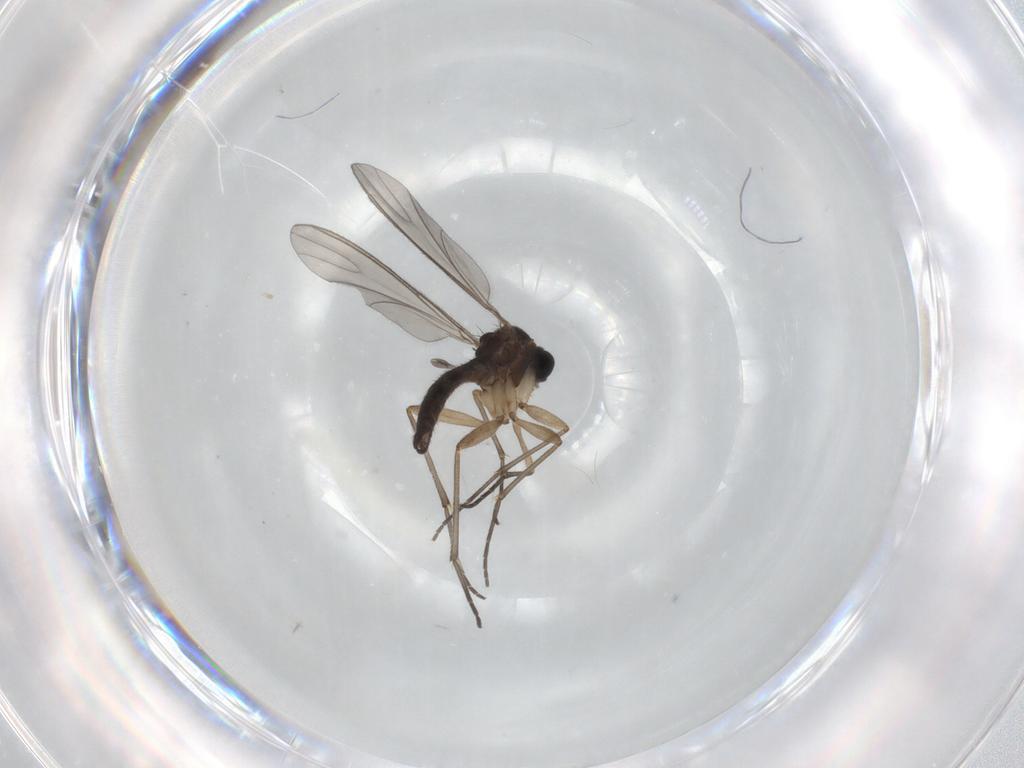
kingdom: Animalia
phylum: Arthropoda
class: Insecta
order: Diptera
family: Sciaridae
